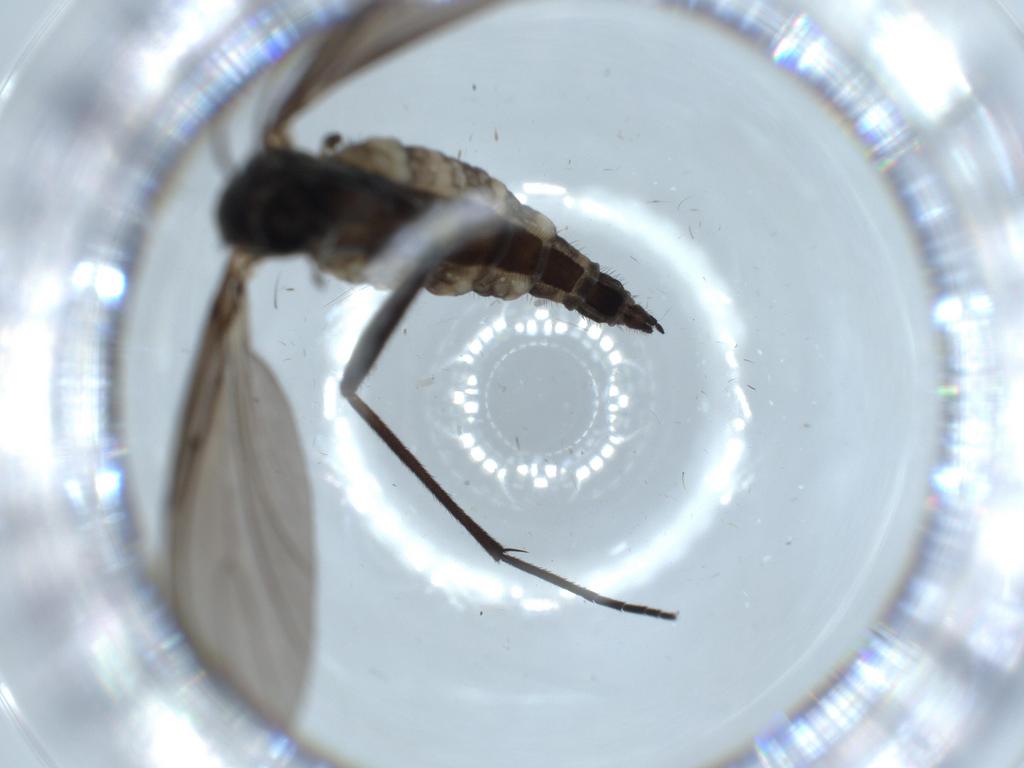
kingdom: Animalia
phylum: Arthropoda
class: Insecta
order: Diptera
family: Sciaridae
